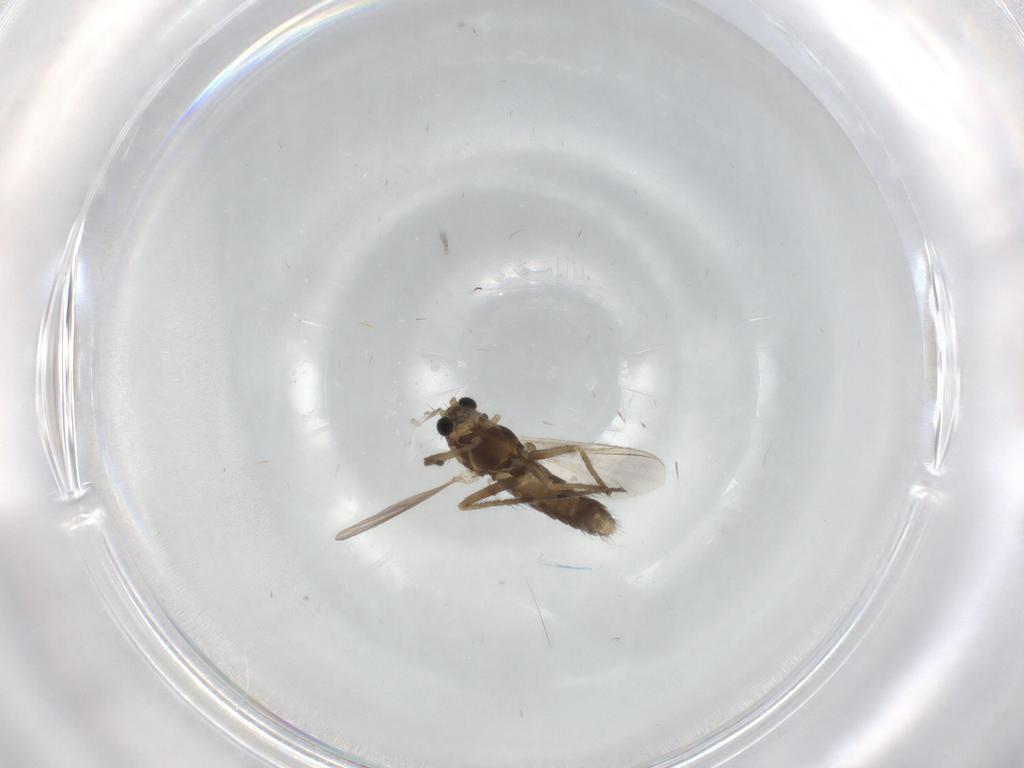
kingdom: Animalia
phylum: Arthropoda
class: Insecta
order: Diptera
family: Chironomidae
